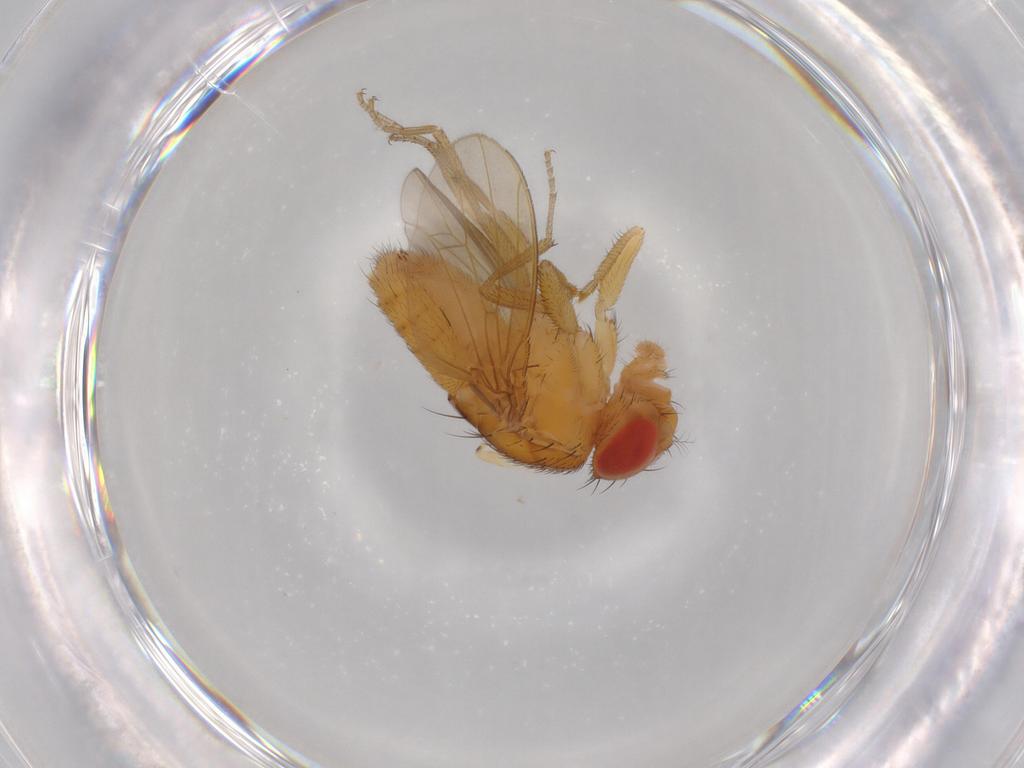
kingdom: Animalia
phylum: Arthropoda
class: Insecta
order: Diptera
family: Drosophilidae
